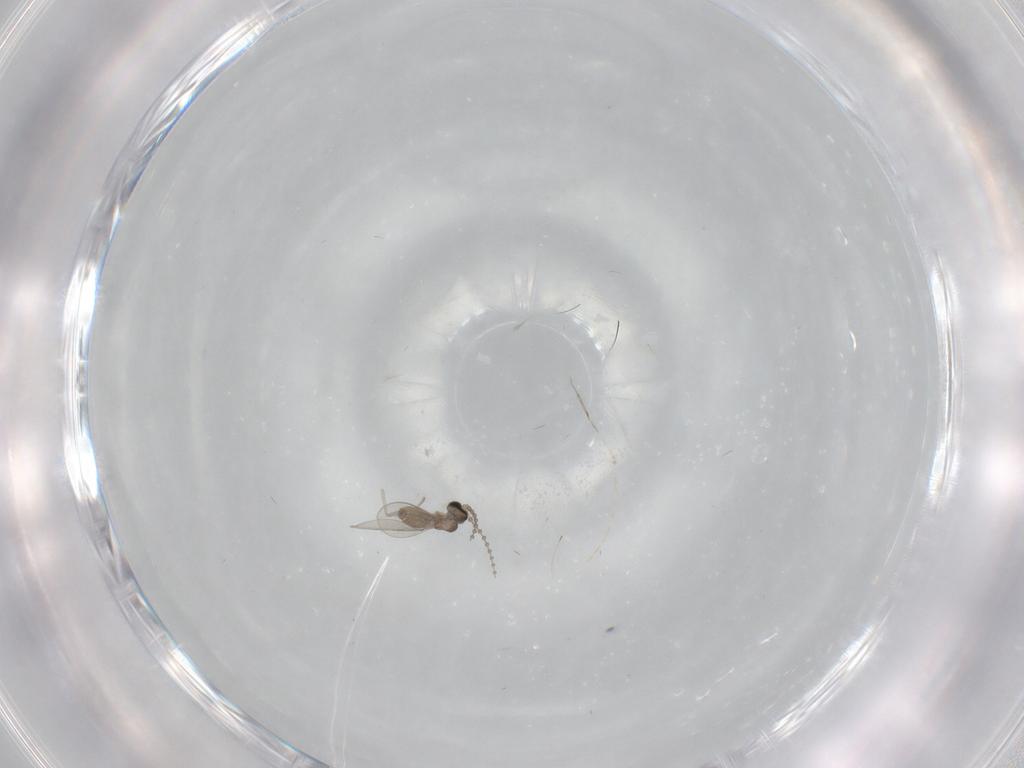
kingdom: Animalia
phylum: Arthropoda
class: Insecta
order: Diptera
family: Cecidomyiidae
